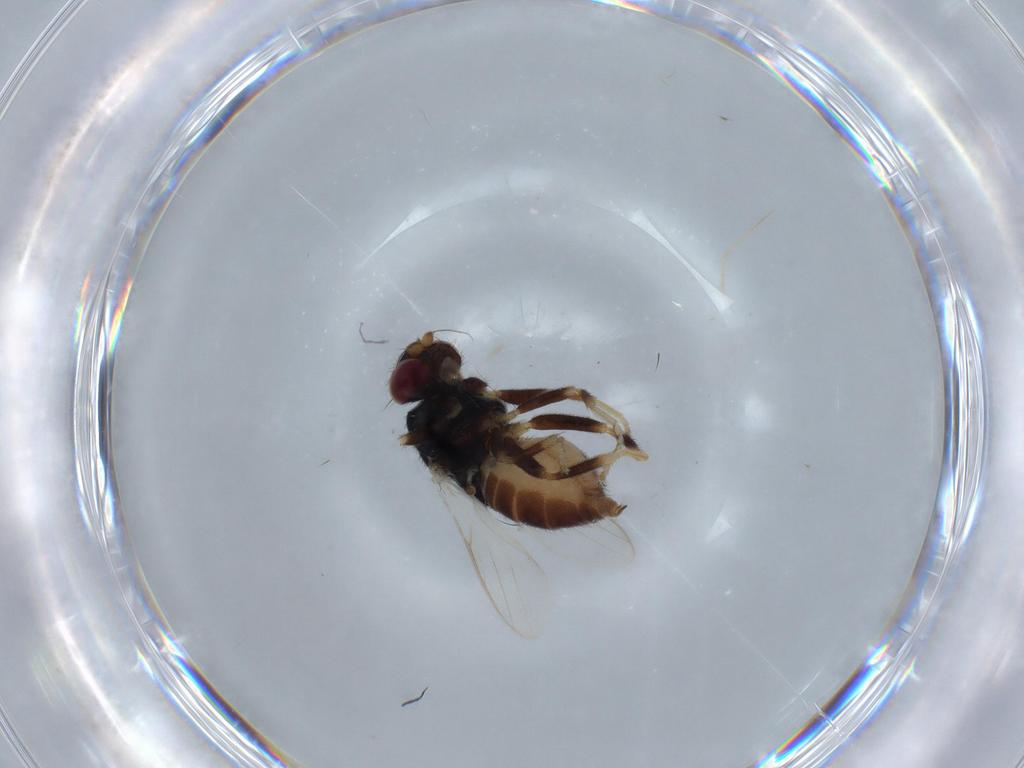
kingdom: Animalia
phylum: Arthropoda
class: Insecta
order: Diptera
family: Chloropidae
